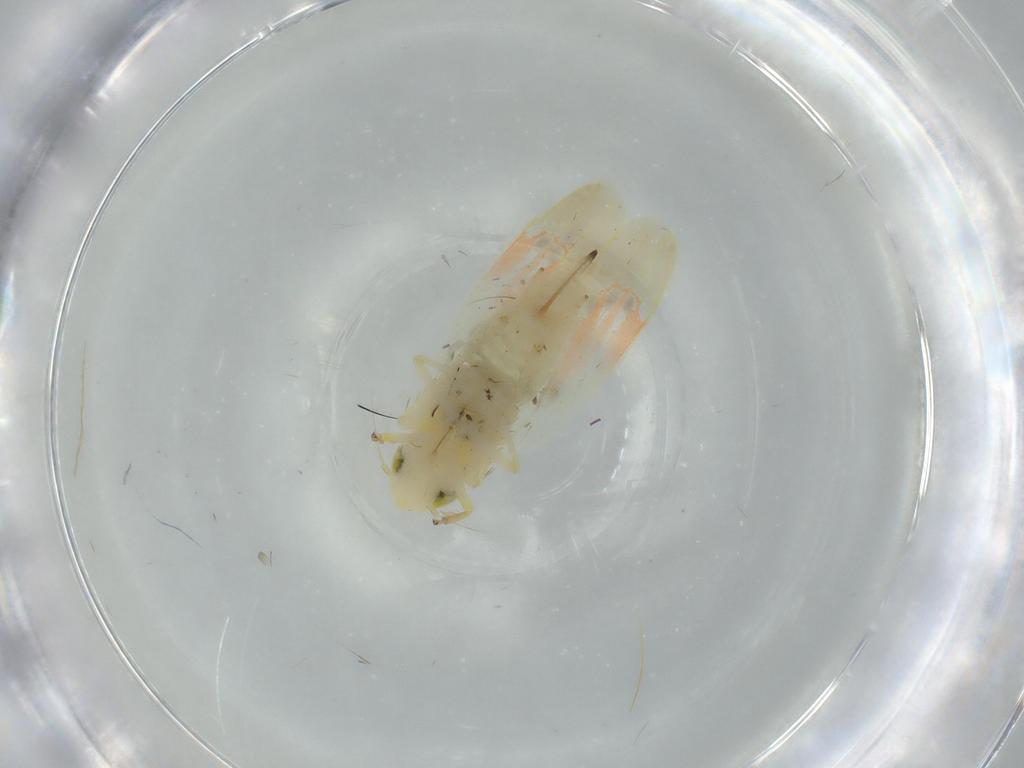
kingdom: Animalia
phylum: Arthropoda
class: Insecta
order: Hemiptera
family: Cicadellidae
